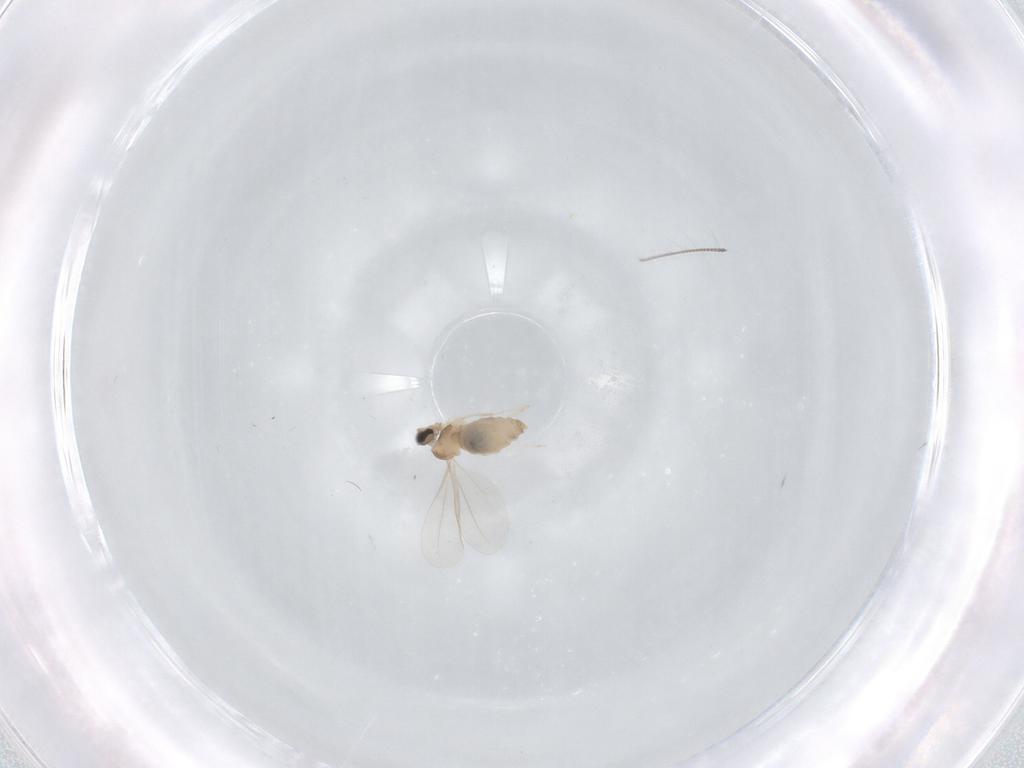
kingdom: Animalia
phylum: Arthropoda
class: Insecta
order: Diptera
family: Chironomidae
